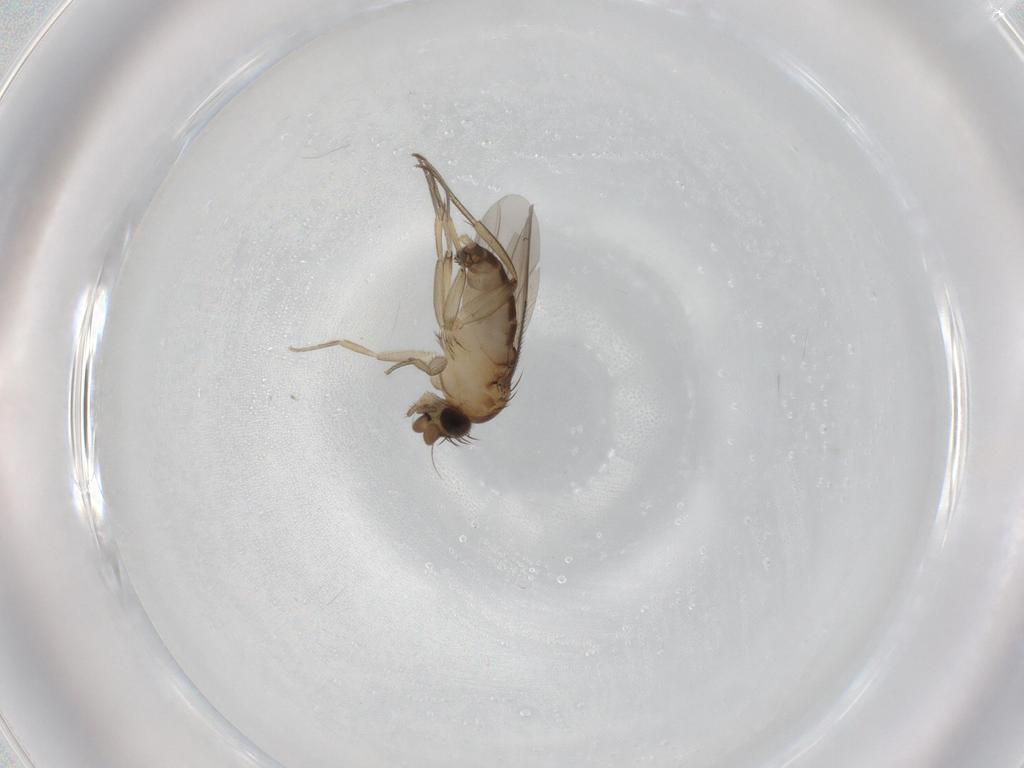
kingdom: Animalia
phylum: Arthropoda
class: Insecta
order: Diptera
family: Phoridae
